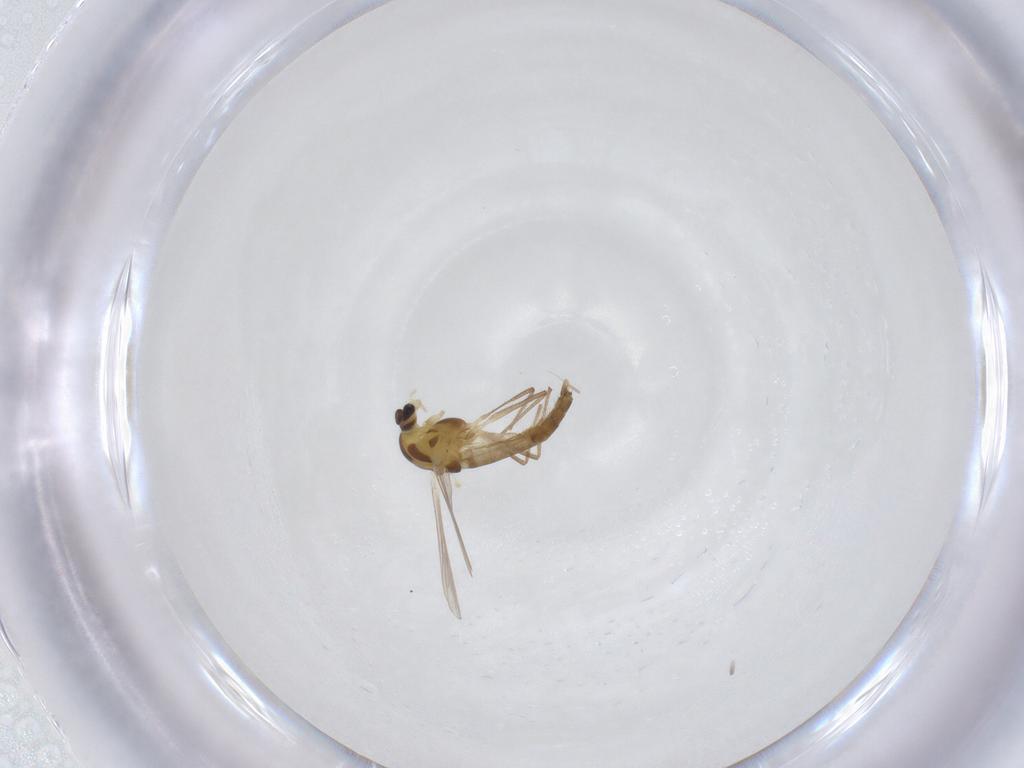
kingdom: Animalia
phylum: Arthropoda
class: Insecta
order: Diptera
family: Chironomidae
